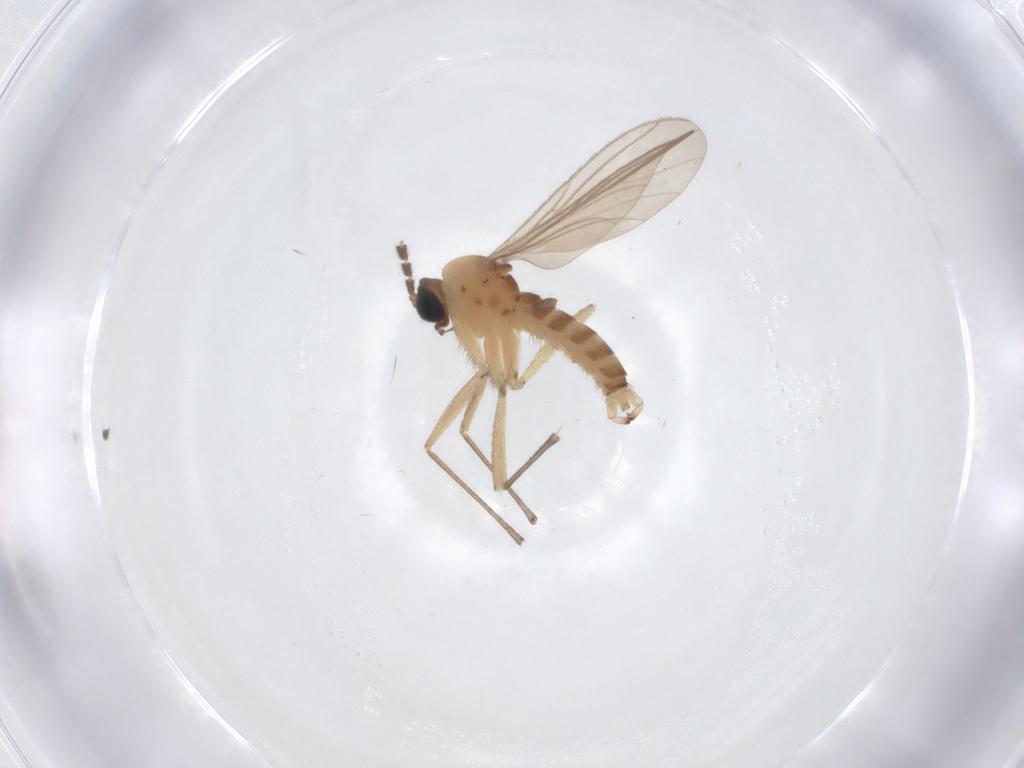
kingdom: Animalia
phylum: Arthropoda
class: Insecta
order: Diptera
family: Sciaridae
